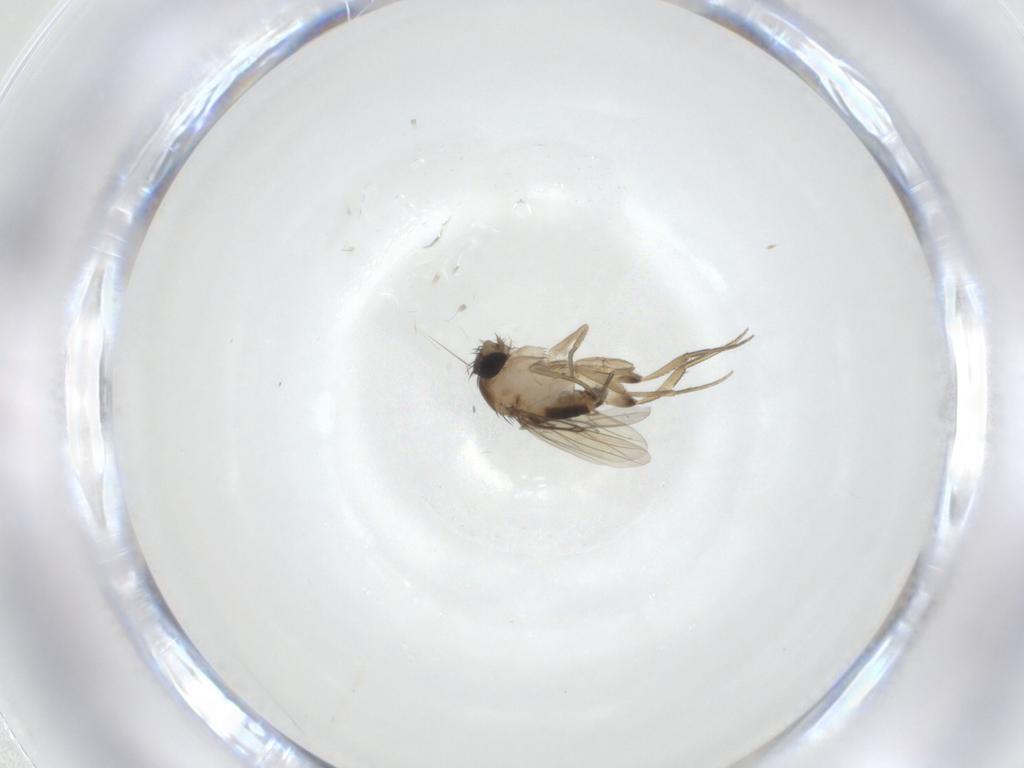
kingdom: Animalia
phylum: Arthropoda
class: Insecta
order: Diptera
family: Phoridae
